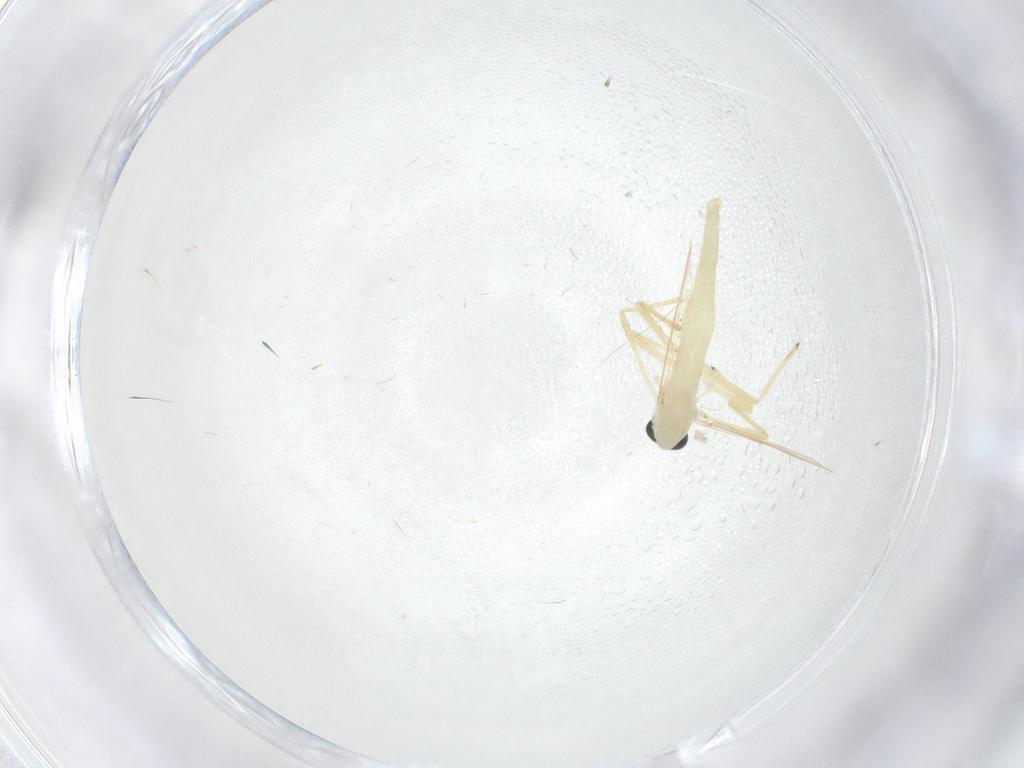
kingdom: Animalia
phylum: Arthropoda
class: Insecta
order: Diptera
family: Chironomidae
